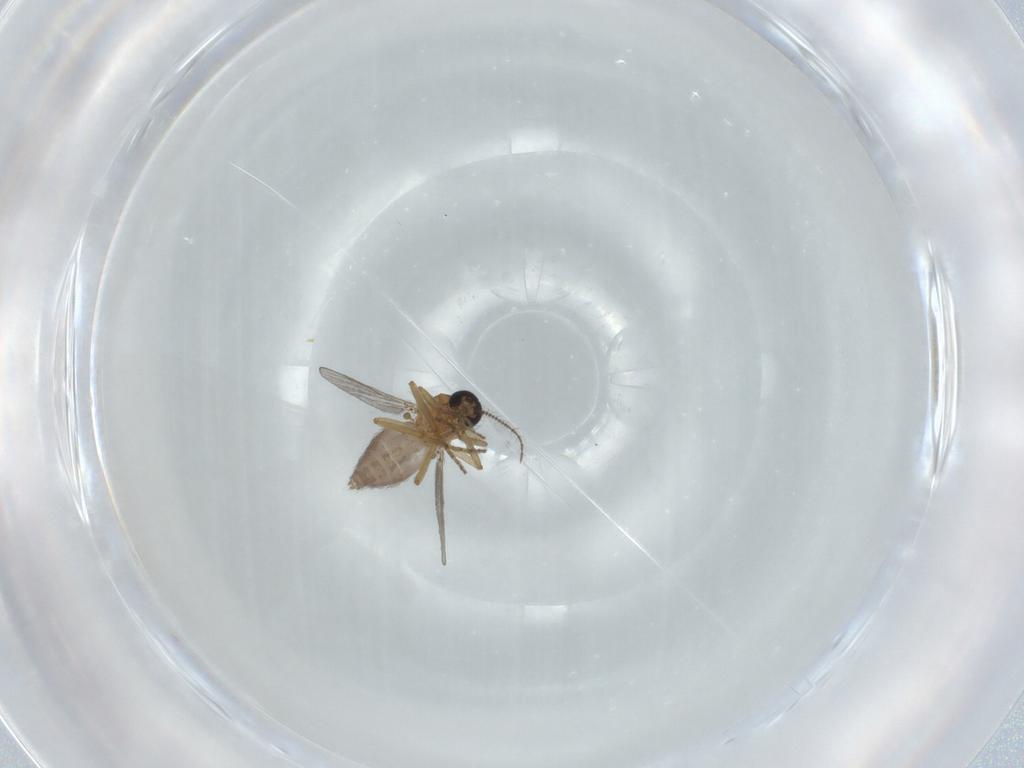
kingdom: Animalia
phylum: Arthropoda
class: Insecta
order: Diptera
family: Ceratopogonidae
